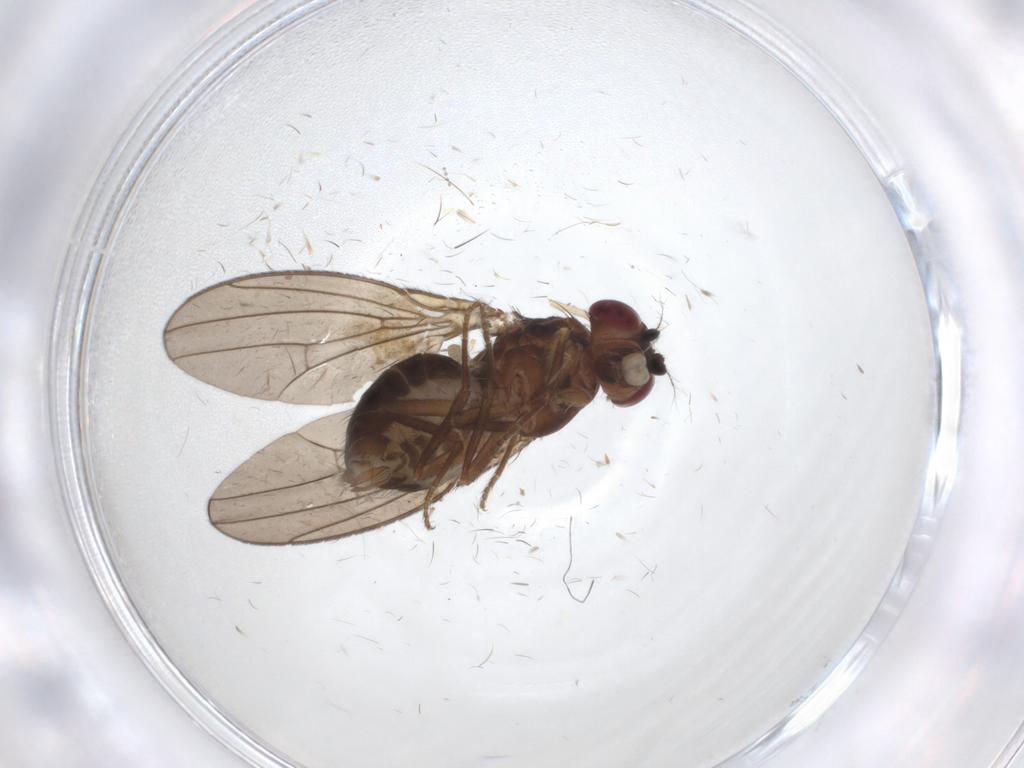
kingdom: Animalia
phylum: Arthropoda
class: Insecta
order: Diptera
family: Drosophilidae
